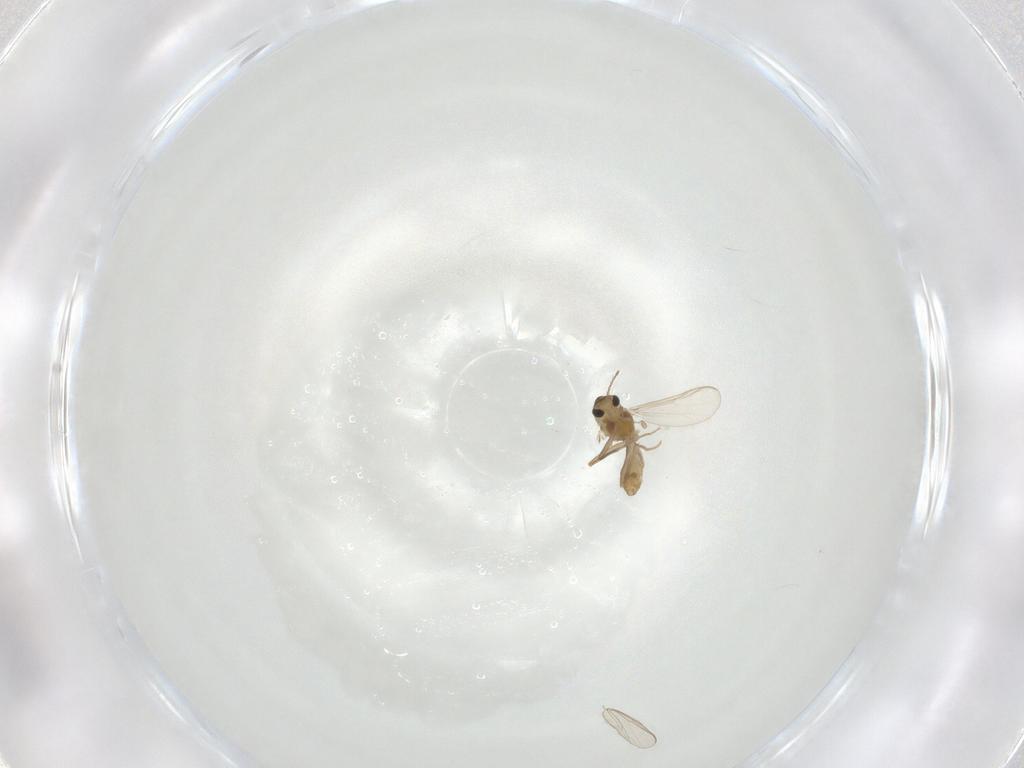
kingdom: Animalia
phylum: Arthropoda
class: Insecta
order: Diptera
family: Chironomidae
